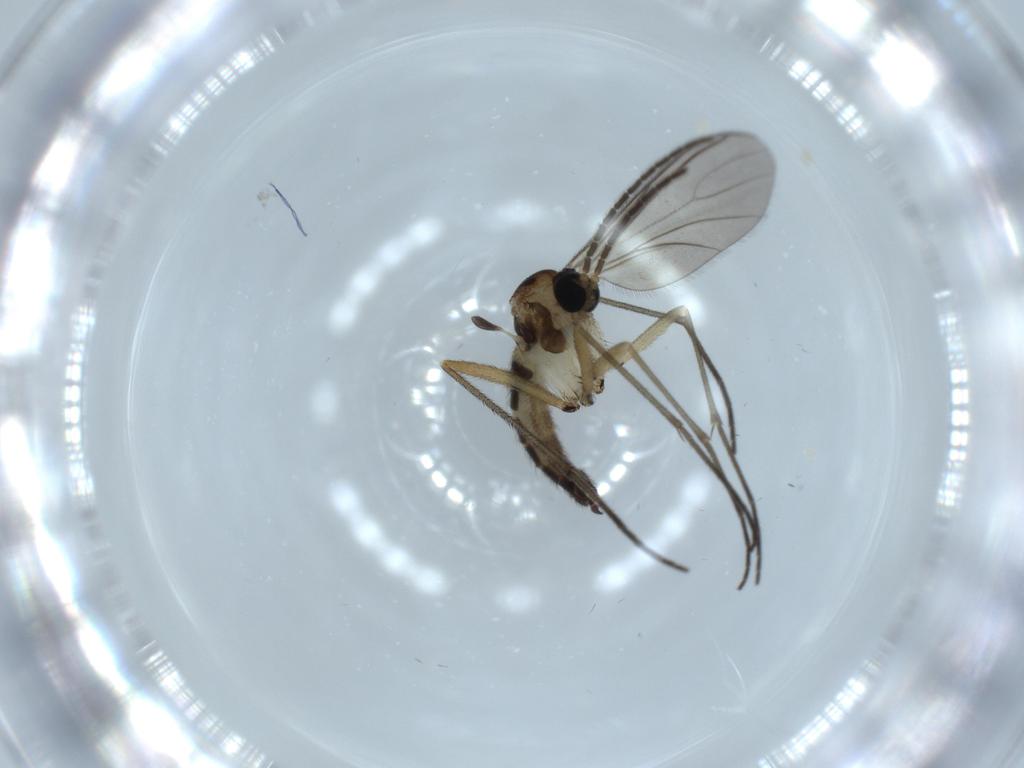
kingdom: Animalia
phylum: Arthropoda
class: Insecta
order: Diptera
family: Sciaridae
